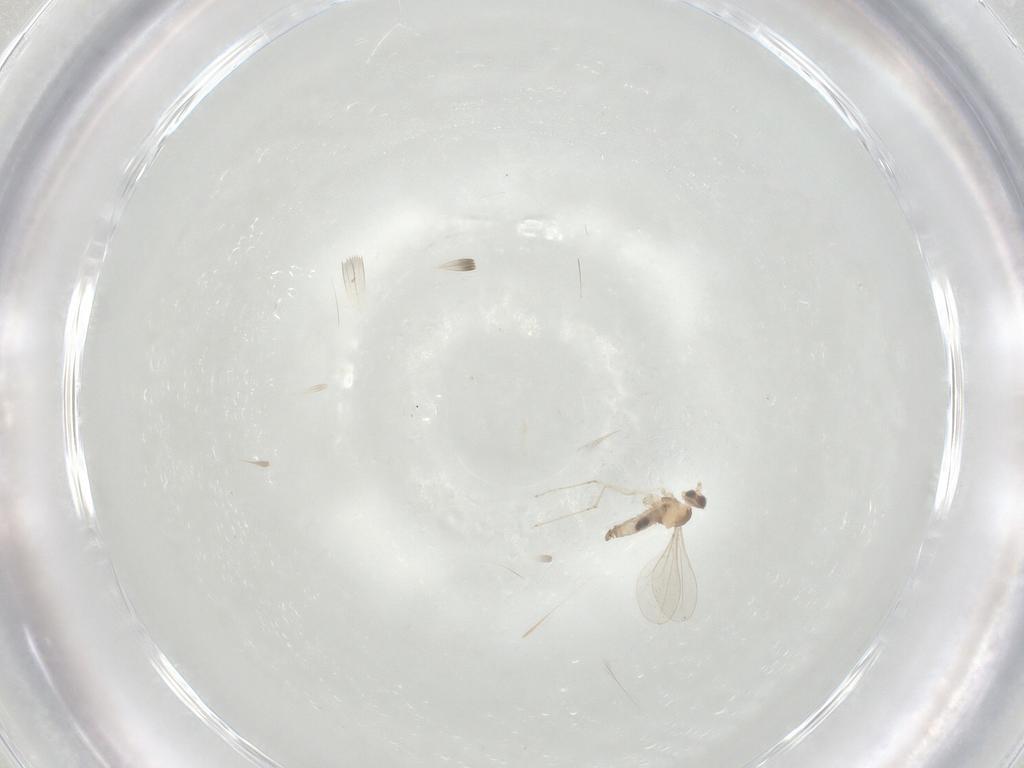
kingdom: Animalia
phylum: Arthropoda
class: Insecta
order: Diptera
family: Cecidomyiidae
